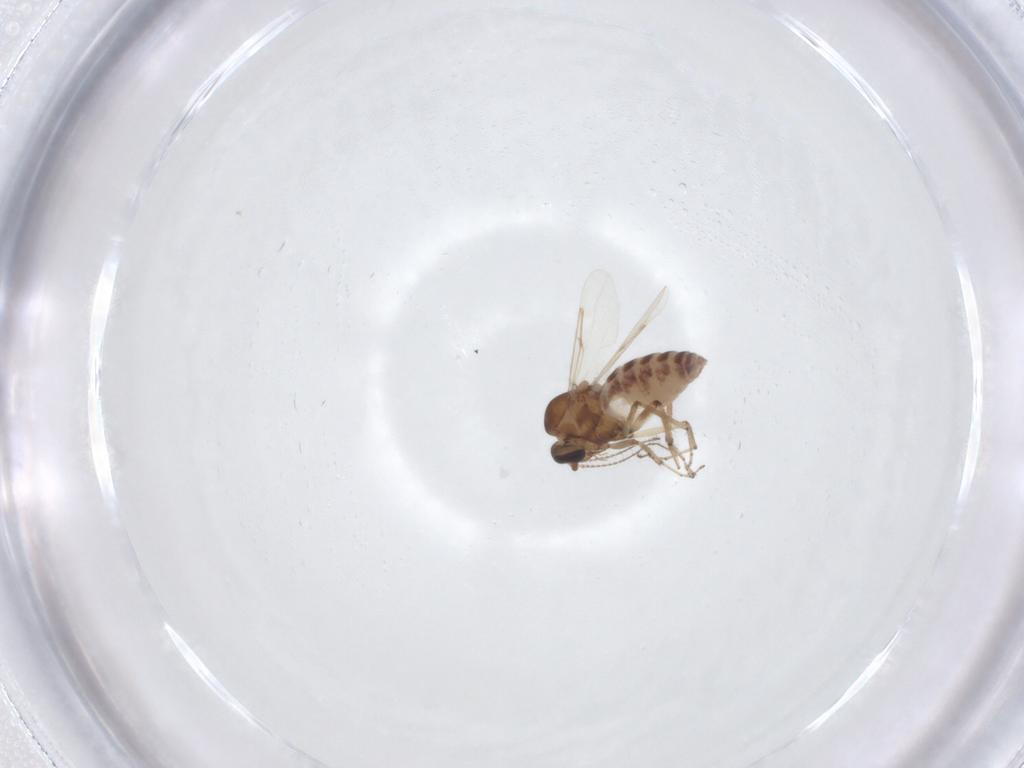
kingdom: Animalia
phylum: Arthropoda
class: Insecta
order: Diptera
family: Ceratopogonidae
